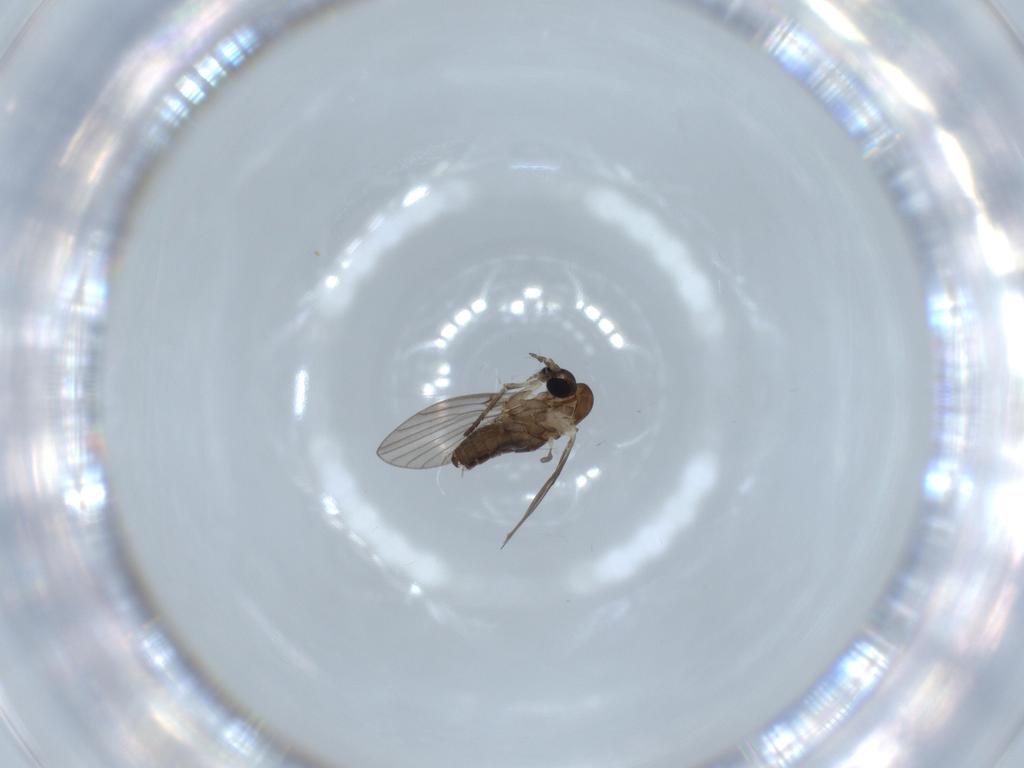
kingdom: Animalia
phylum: Arthropoda
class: Insecta
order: Diptera
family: Psychodidae
